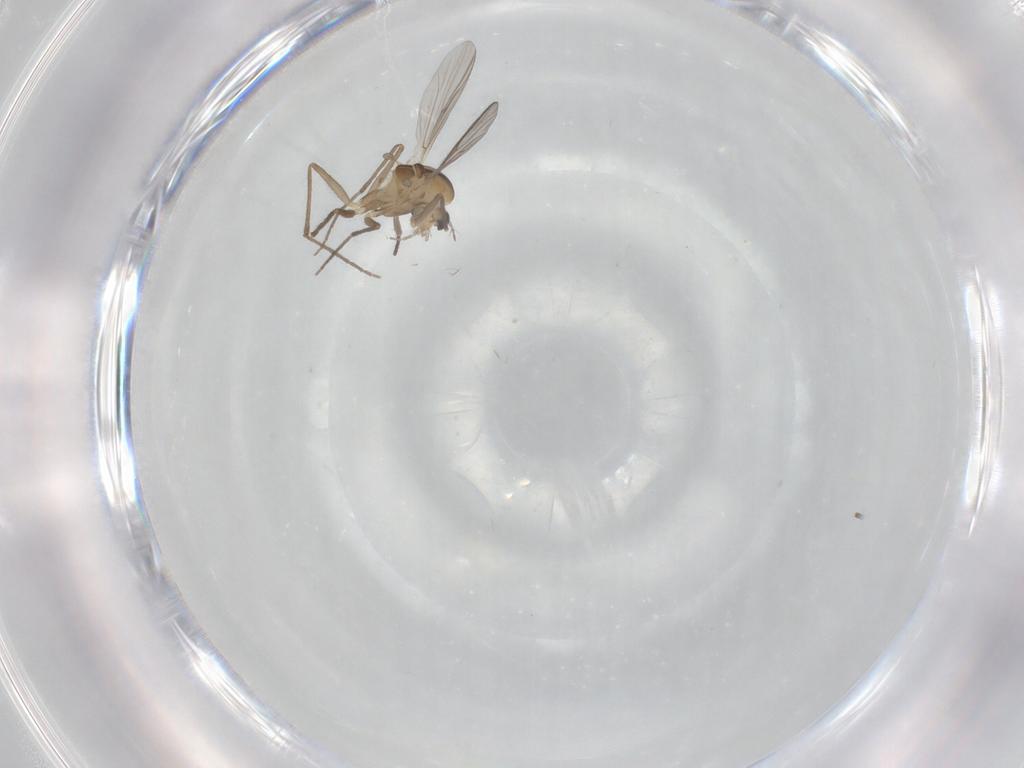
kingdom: Animalia
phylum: Arthropoda
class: Insecta
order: Diptera
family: Chironomidae
